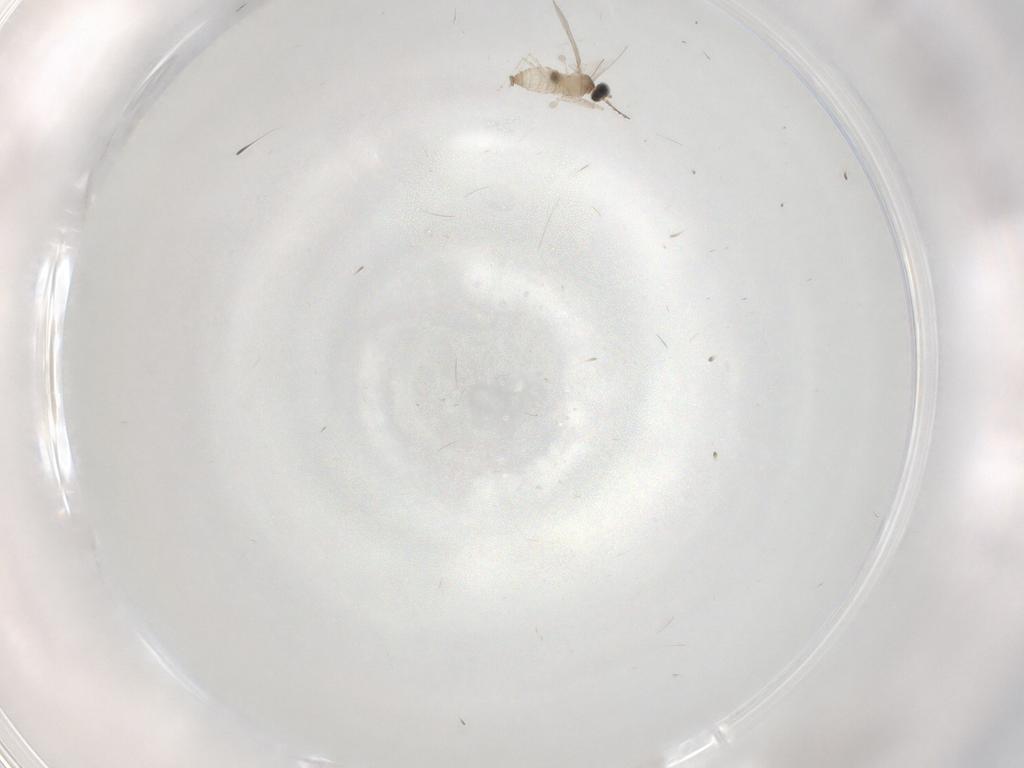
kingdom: Animalia
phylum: Arthropoda
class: Insecta
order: Diptera
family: Cecidomyiidae
